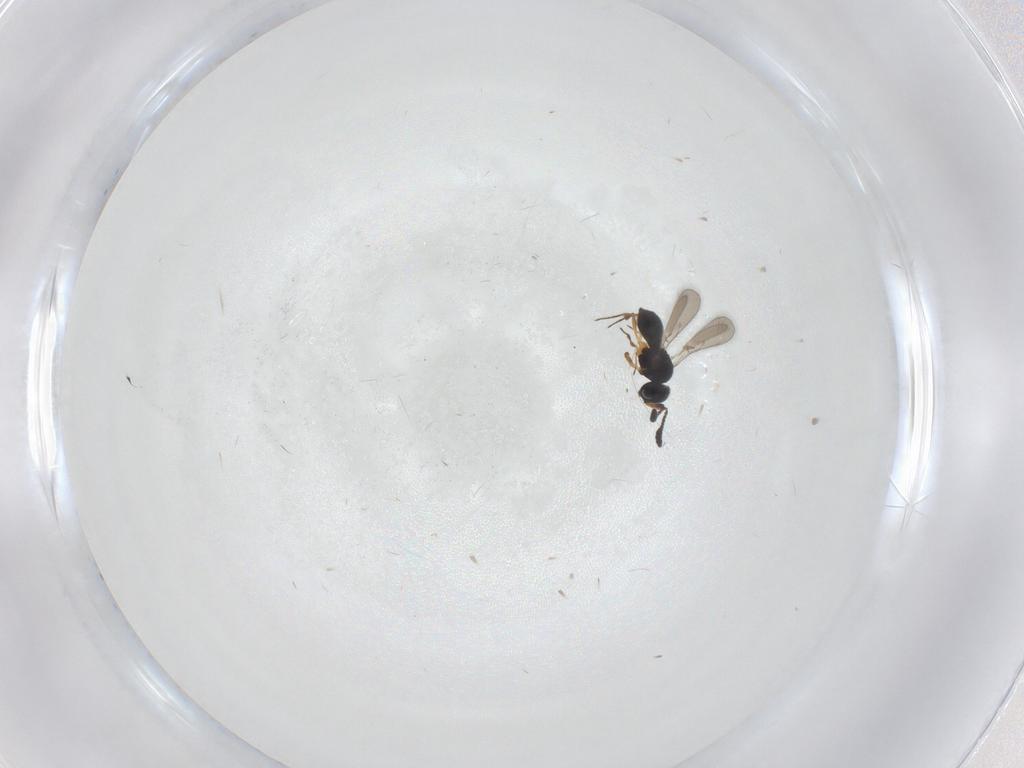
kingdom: Animalia
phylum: Arthropoda
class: Insecta
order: Hymenoptera
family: Scelionidae
